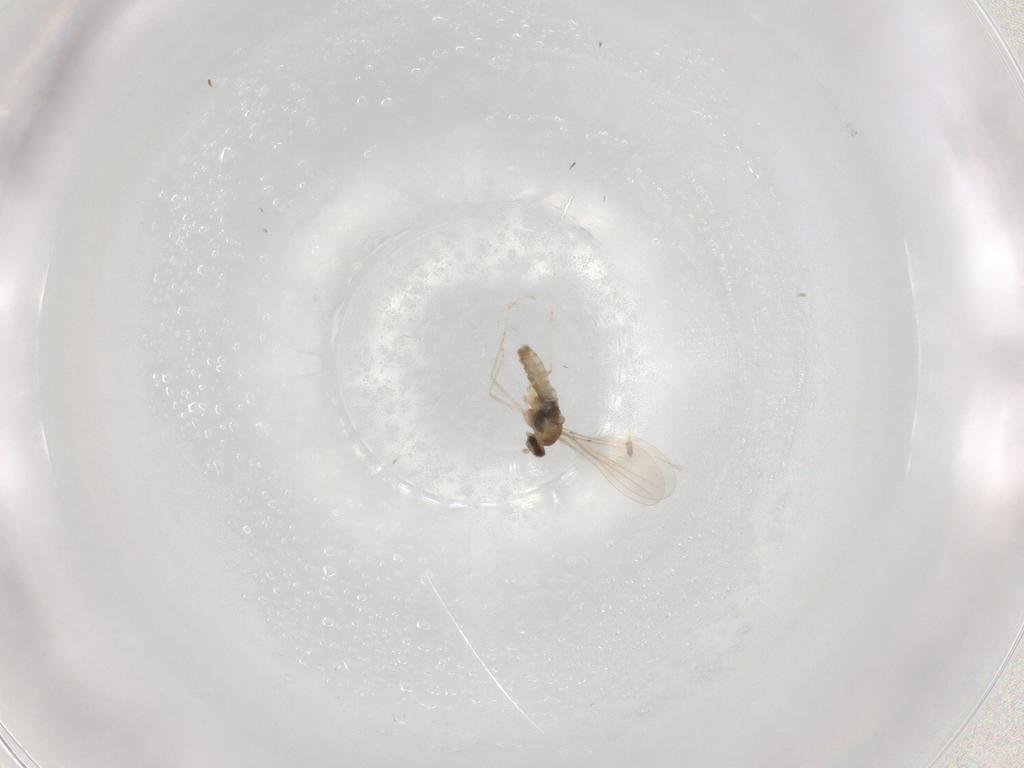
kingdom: Animalia
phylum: Arthropoda
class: Insecta
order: Diptera
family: Cecidomyiidae
